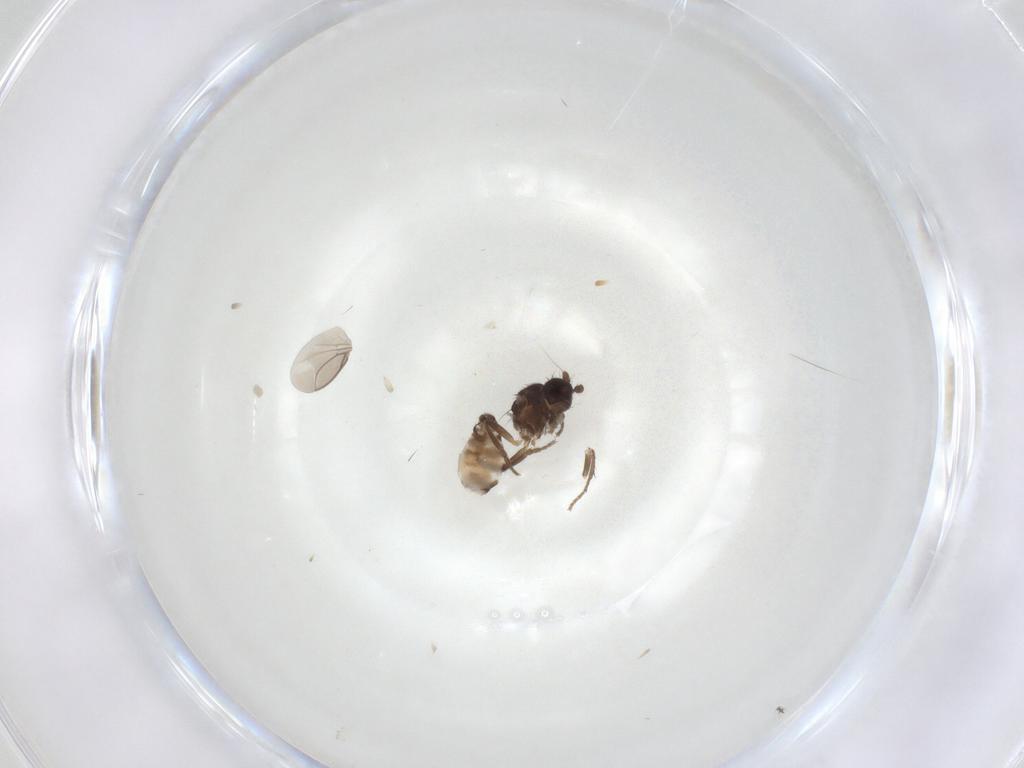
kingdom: Animalia
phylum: Arthropoda
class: Insecta
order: Diptera
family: Sphaeroceridae
